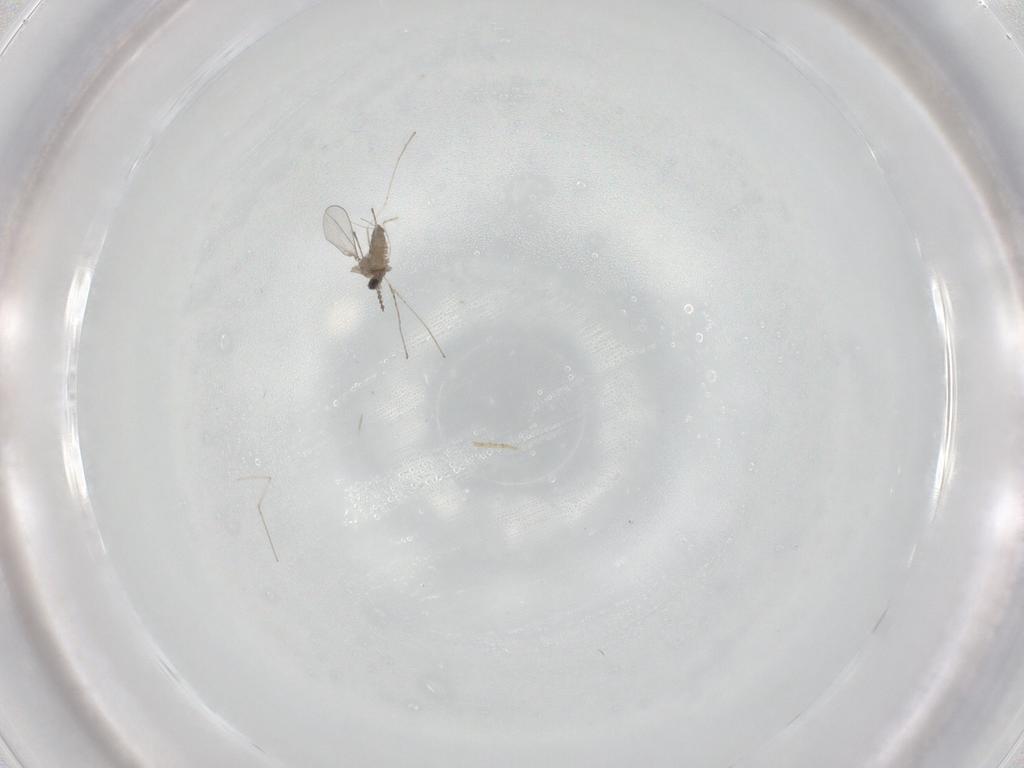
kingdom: Animalia
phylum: Arthropoda
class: Insecta
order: Diptera
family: Cecidomyiidae
